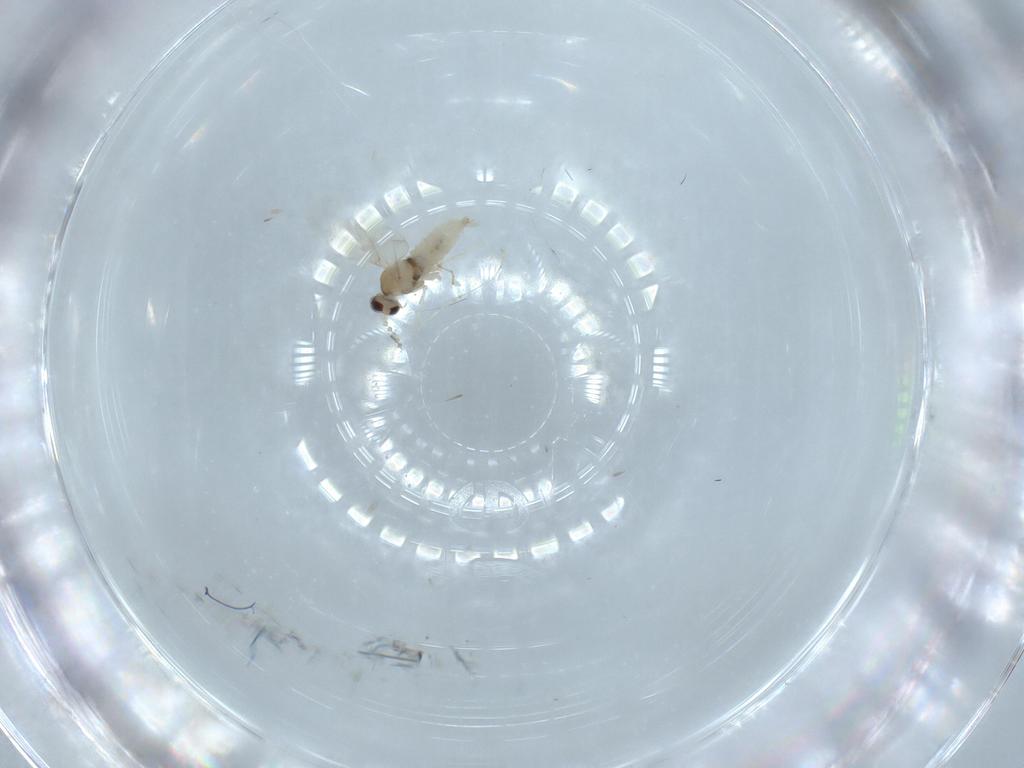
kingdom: Animalia
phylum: Arthropoda
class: Insecta
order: Diptera
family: Cecidomyiidae
